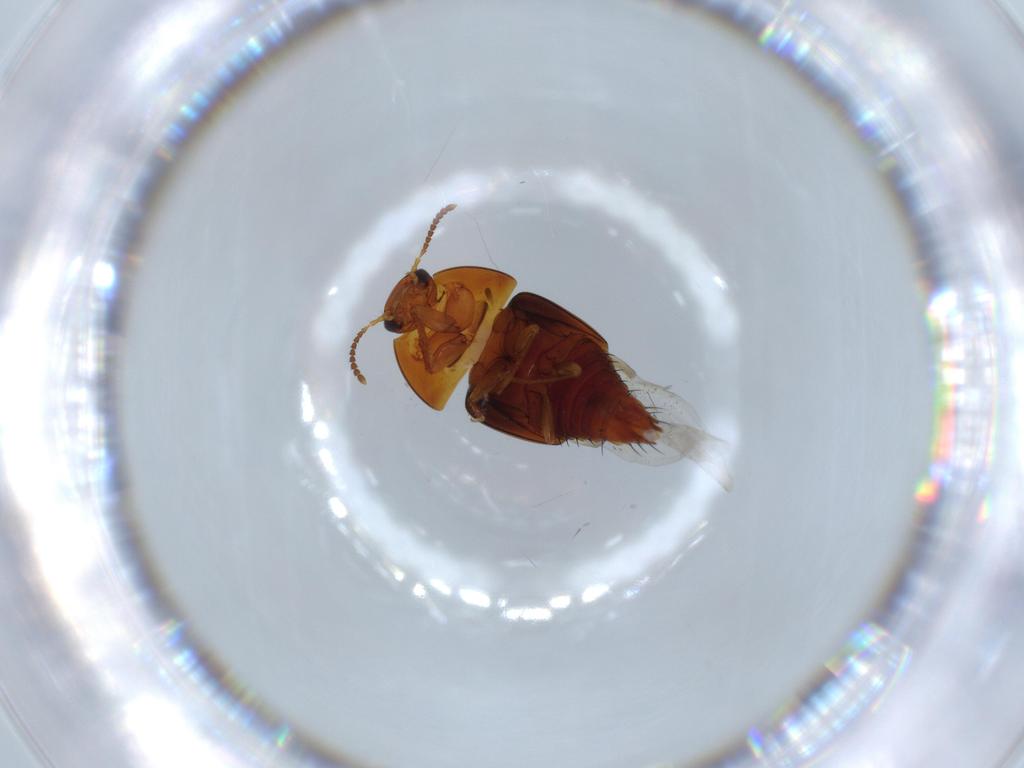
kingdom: Animalia
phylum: Arthropoda
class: Insecta
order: Coleoptera
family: Staphylinidae
